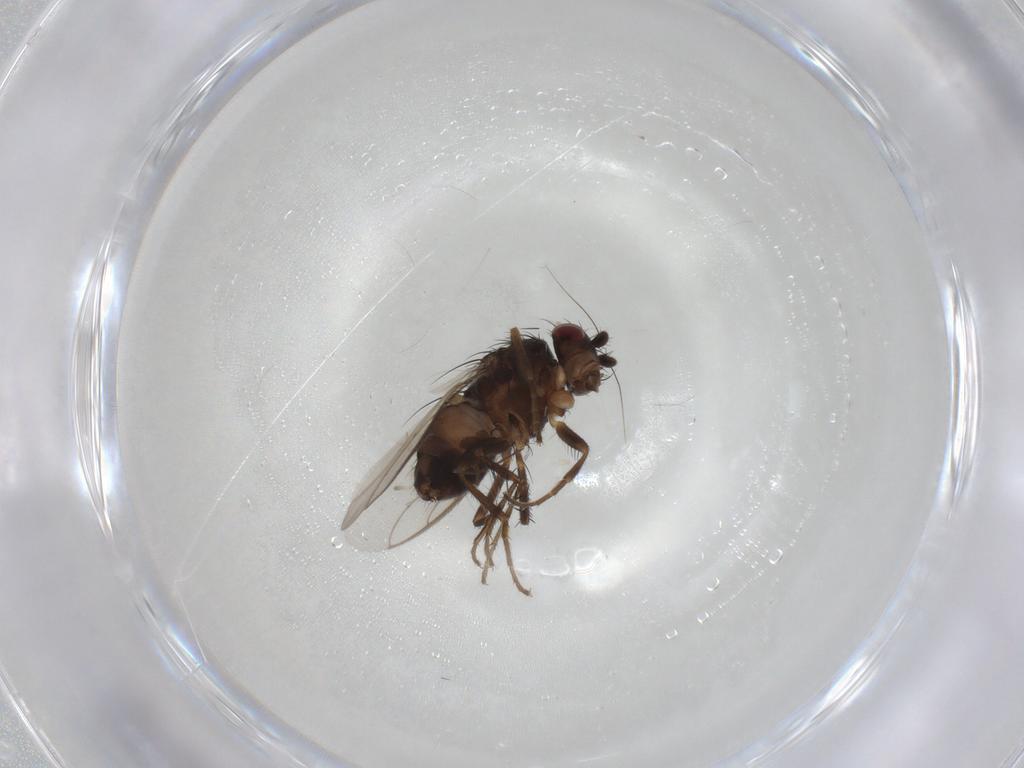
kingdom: Animalia
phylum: Arthropoda
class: Insecta
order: Diptera
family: Sphaeroceridae
